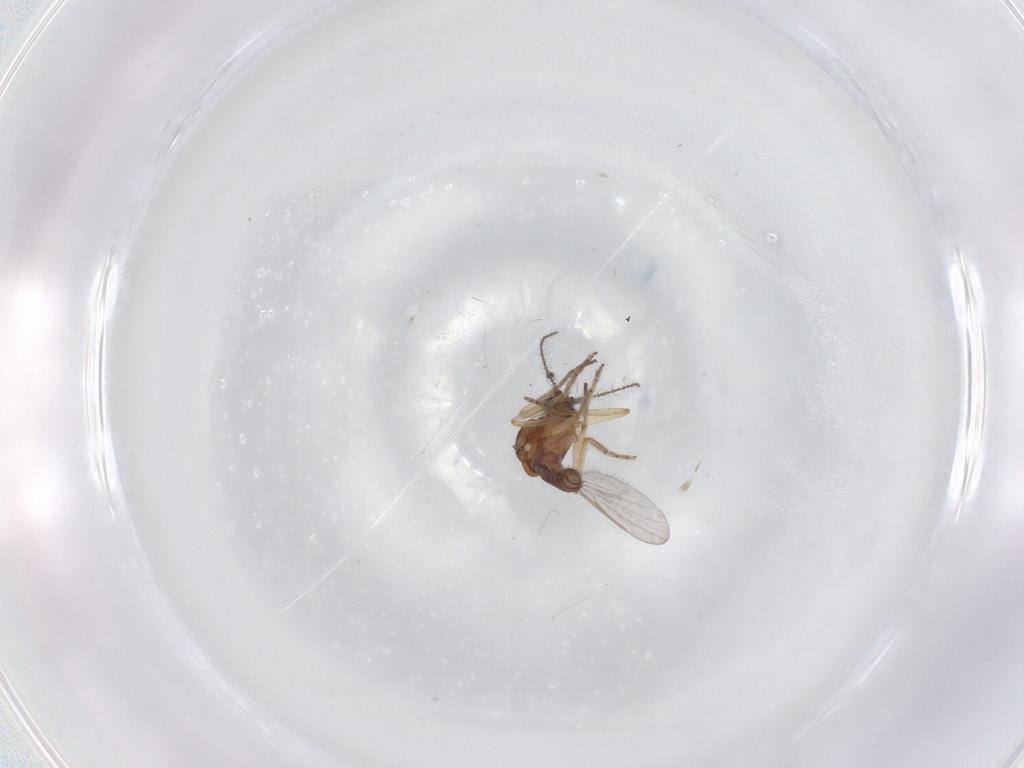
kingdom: Animalia
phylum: Arthropoda
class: Insecta
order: Diptera
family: Ceratopogonidae
